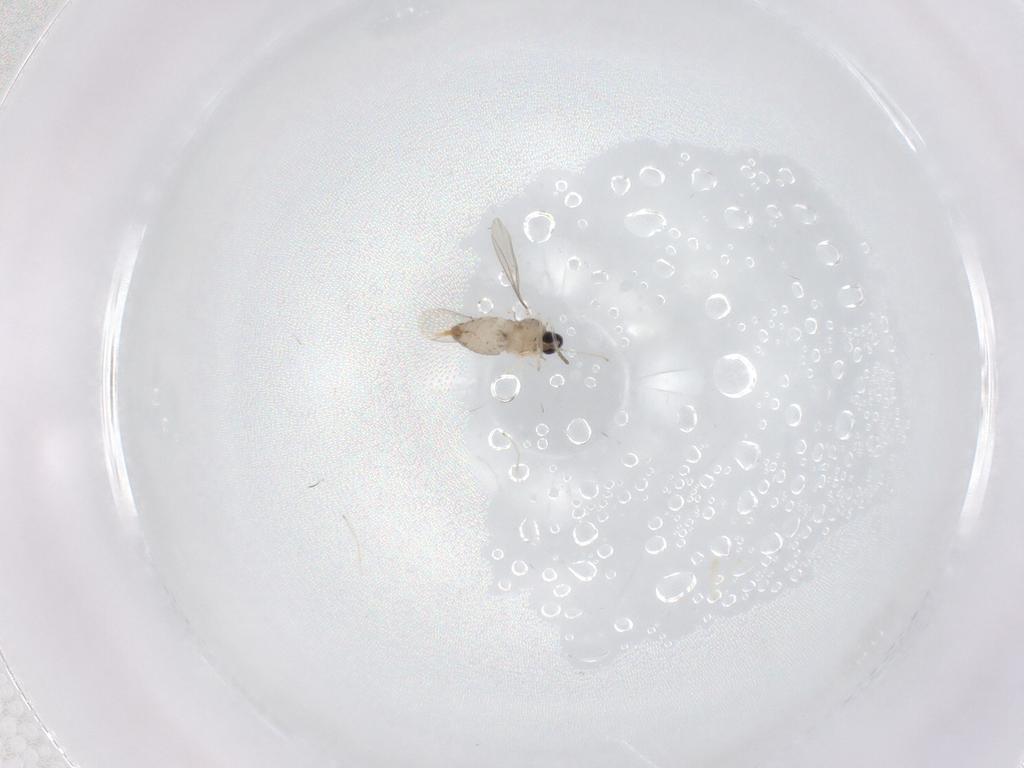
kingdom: Animalia
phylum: Arthropoda
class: Insecta
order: Diptera
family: Cecidomyiidae
